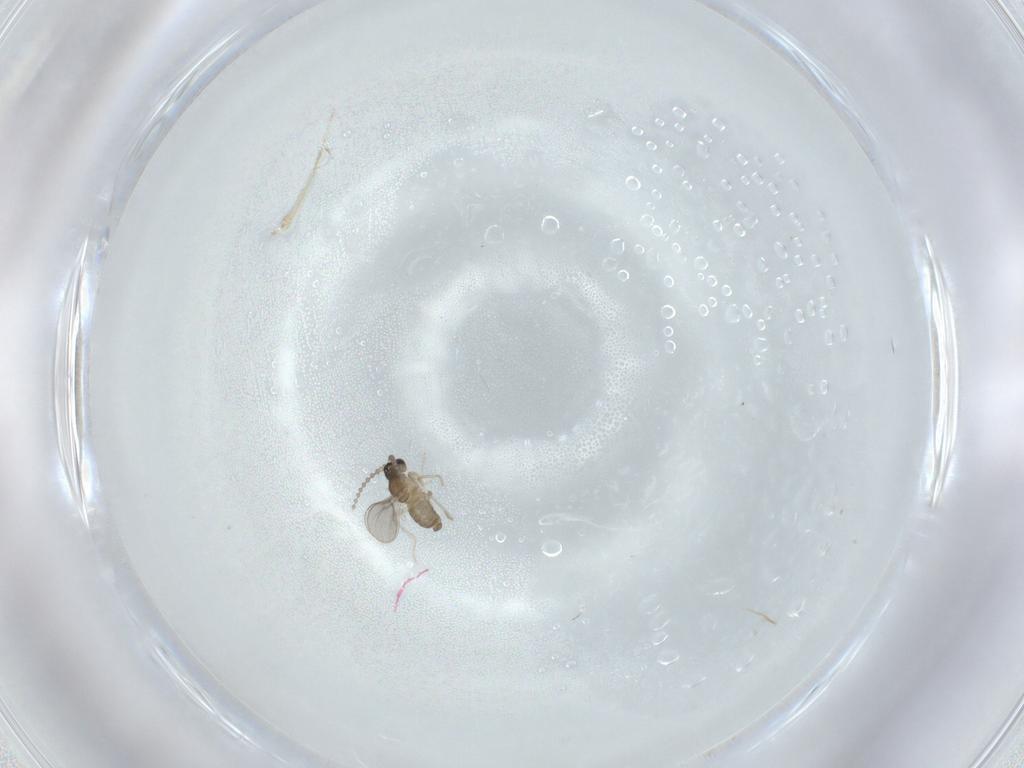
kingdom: Animalia
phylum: Arthropoda
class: Insecta
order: Diptera
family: Cecidomyiidae
